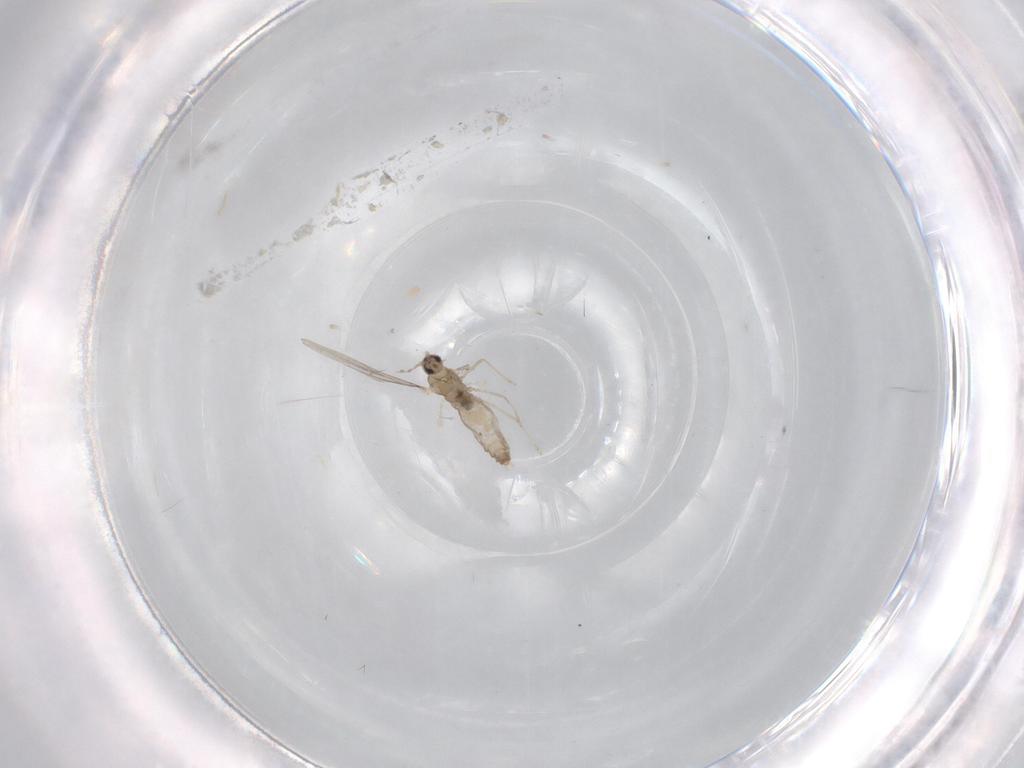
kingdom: Animalia
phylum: Arthropoda
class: Insecta
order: Diptera
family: Cecidomyiidae
